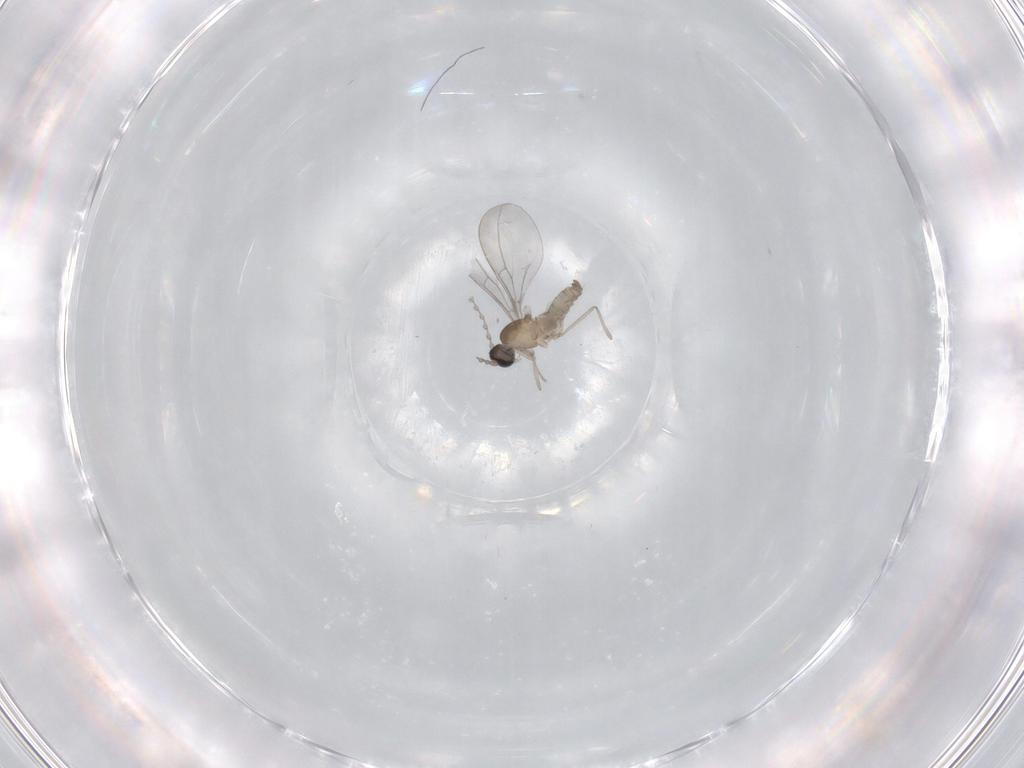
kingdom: Animalia
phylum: Arthropoda
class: Insecta
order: Diptera
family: Cecidomyiidae
